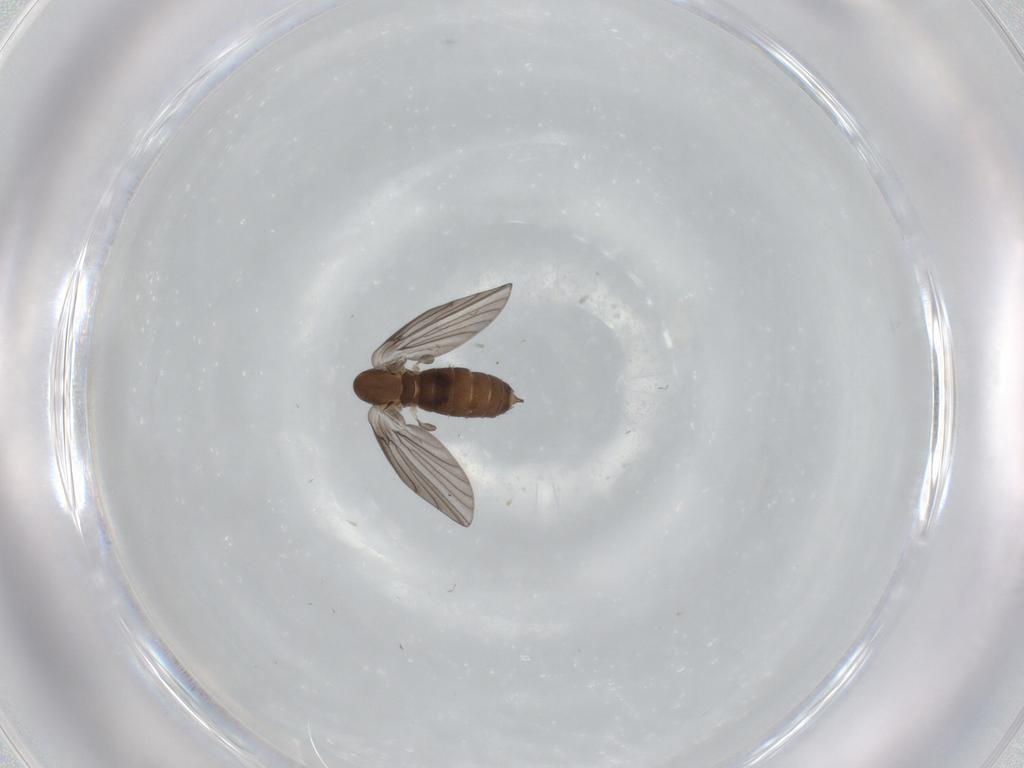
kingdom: Animalia
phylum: Arthropoda
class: Insecta
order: Diptera
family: Psychodidae
